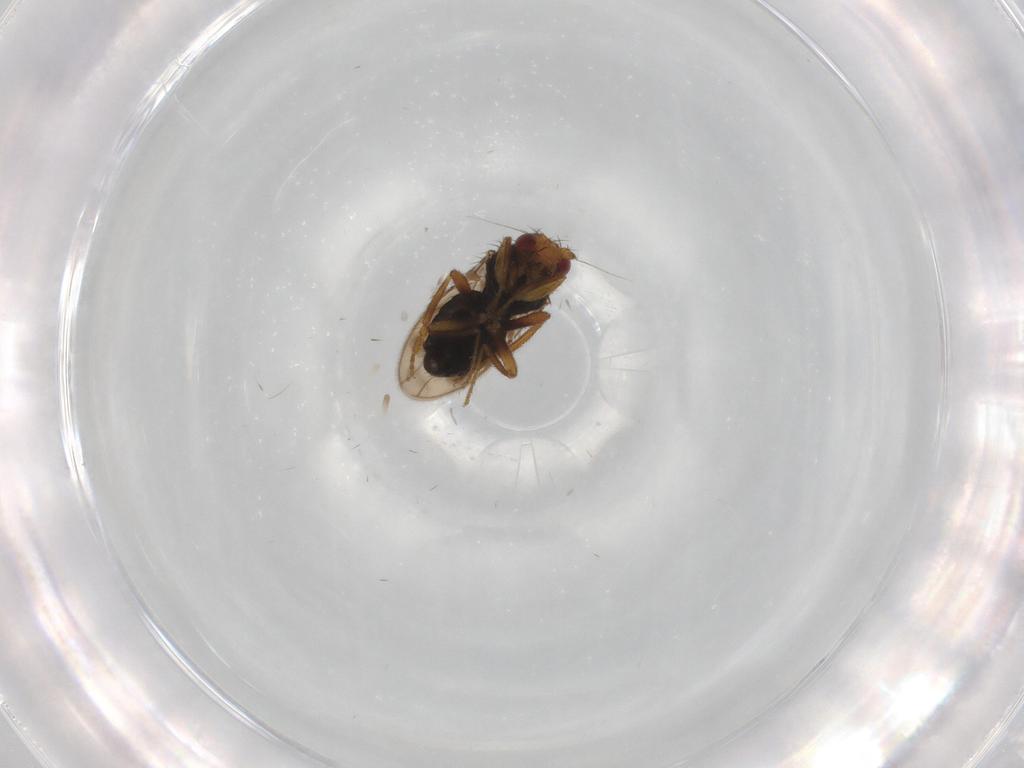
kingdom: Animalia
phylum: Arthropoda
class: Insecta
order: Diptera
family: Sphaeroceridae
